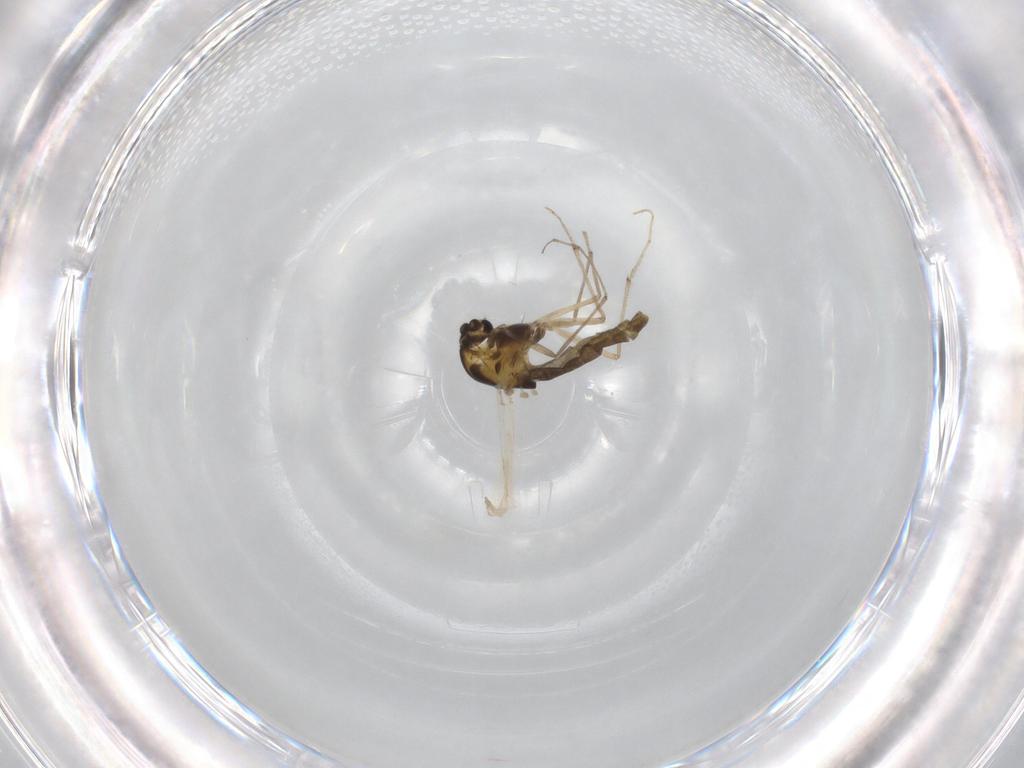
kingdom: Animalia
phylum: Arthropoda
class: Insecta
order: Diptera
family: Chironomidae
